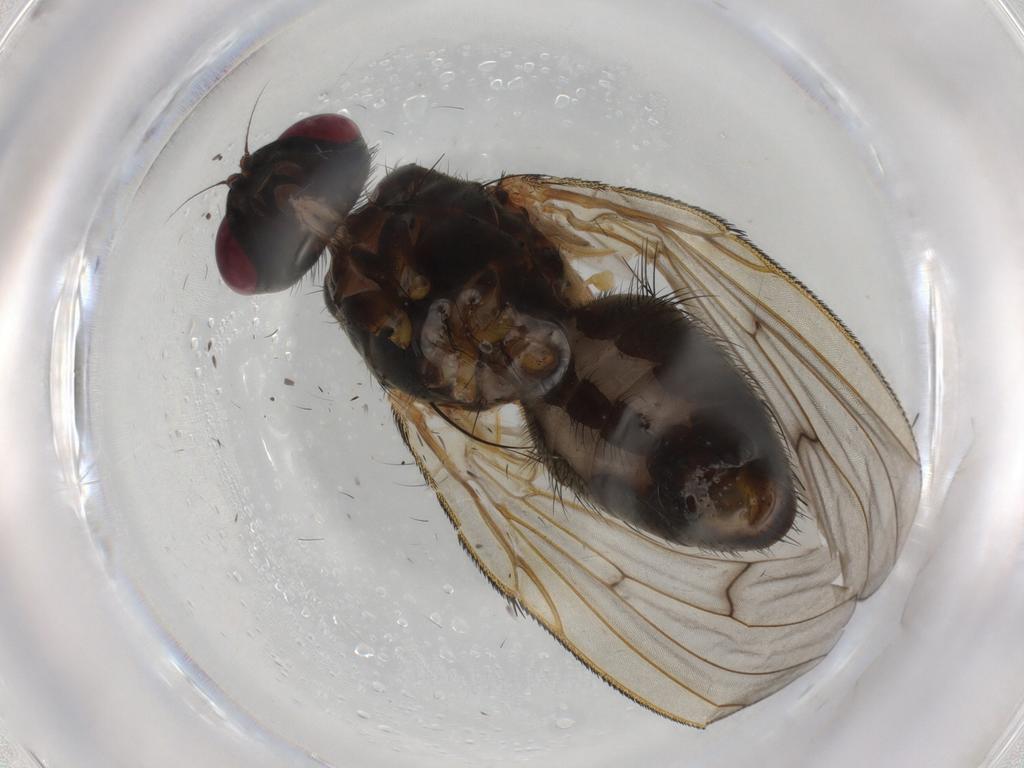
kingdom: Animalia
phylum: Arthropoda
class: Insecta
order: Diptera
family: Muscidae
